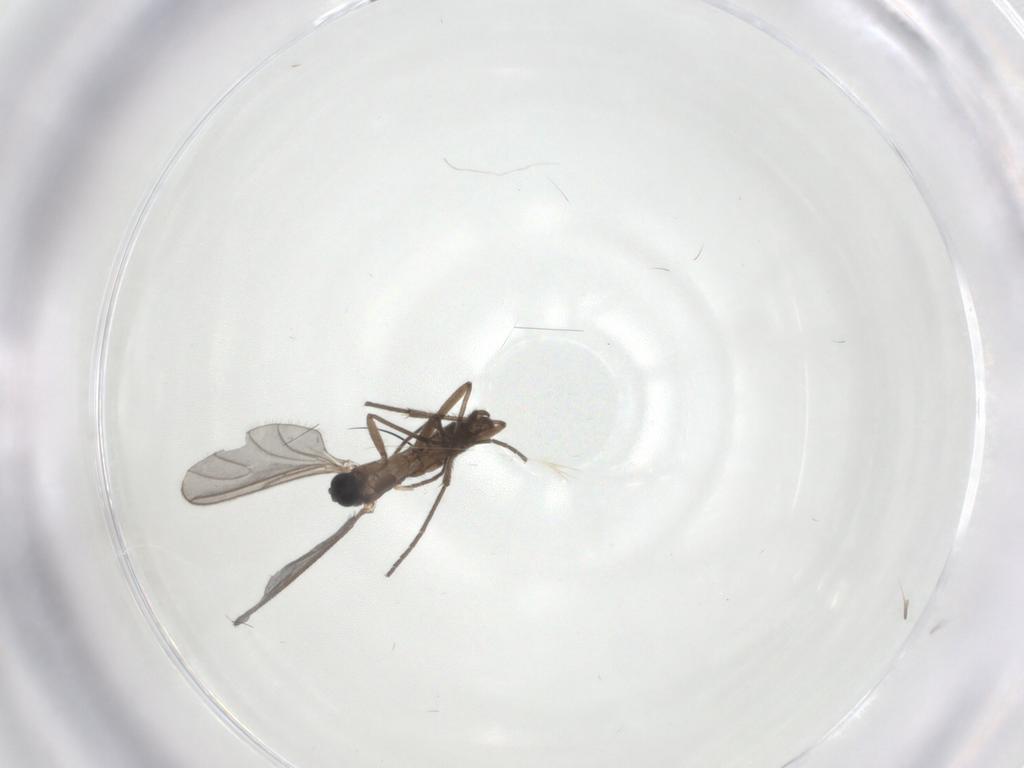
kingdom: Animalia
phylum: Arthropoda
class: Insecta
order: Diptera
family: Sciaridae
